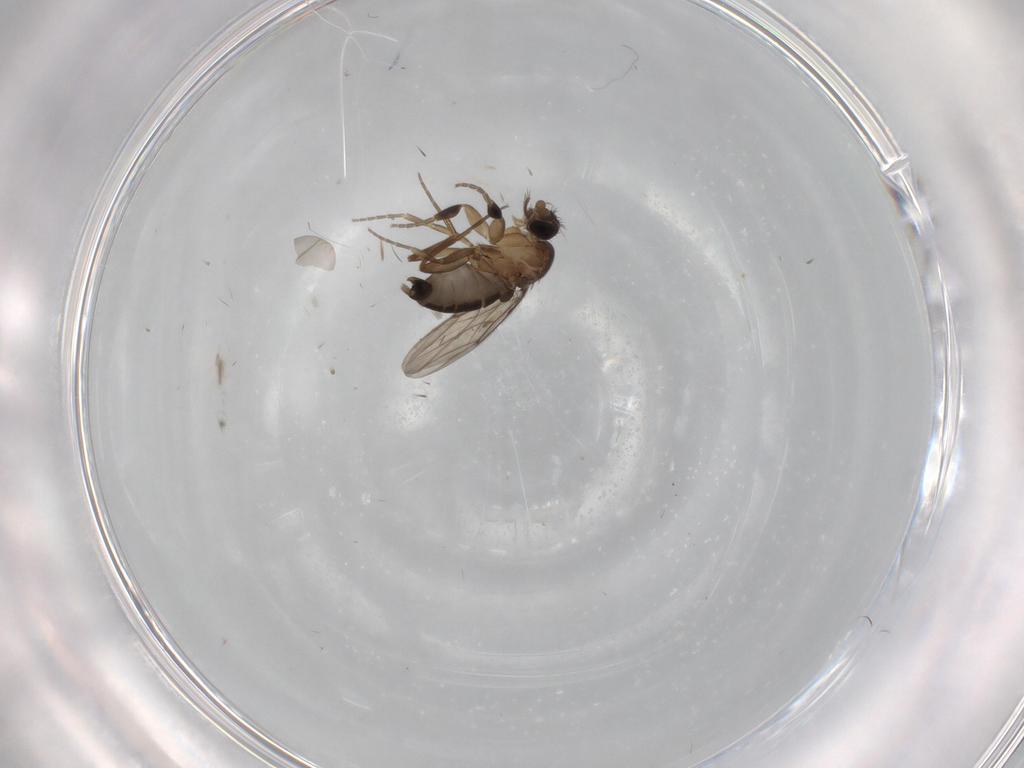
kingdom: Animalia
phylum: Arthropoda
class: Insecta
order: Diptera
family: Phoridae
